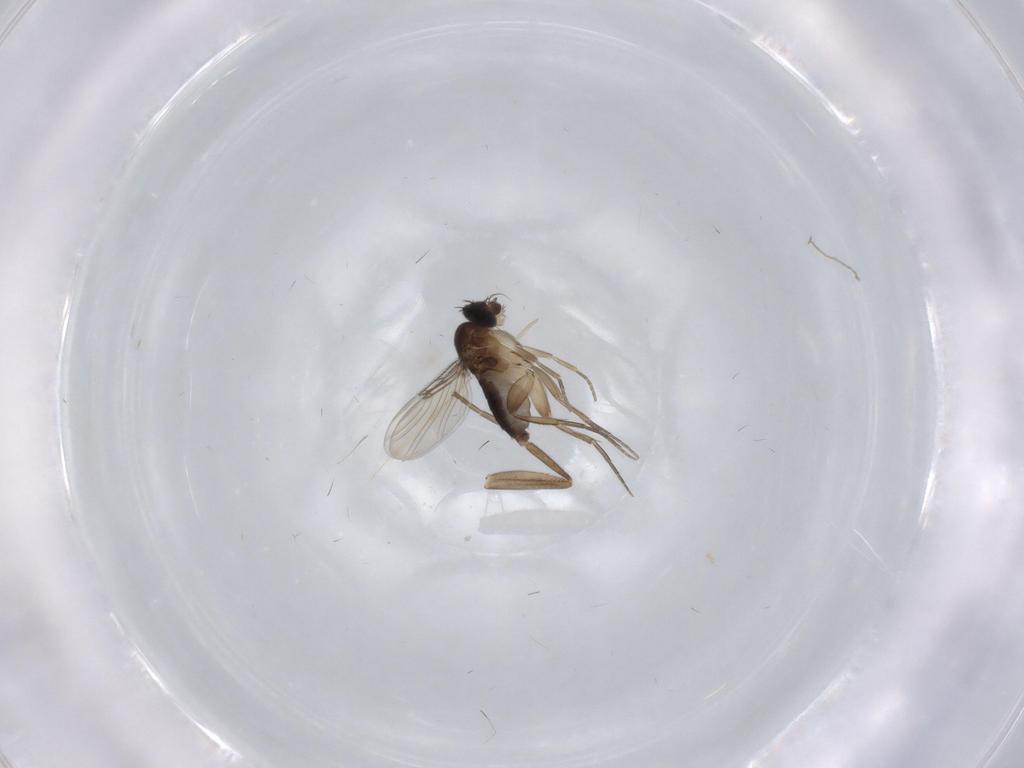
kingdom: Animalia
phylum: Arthropoda
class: Insecta
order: Diptera
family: Phoridae
